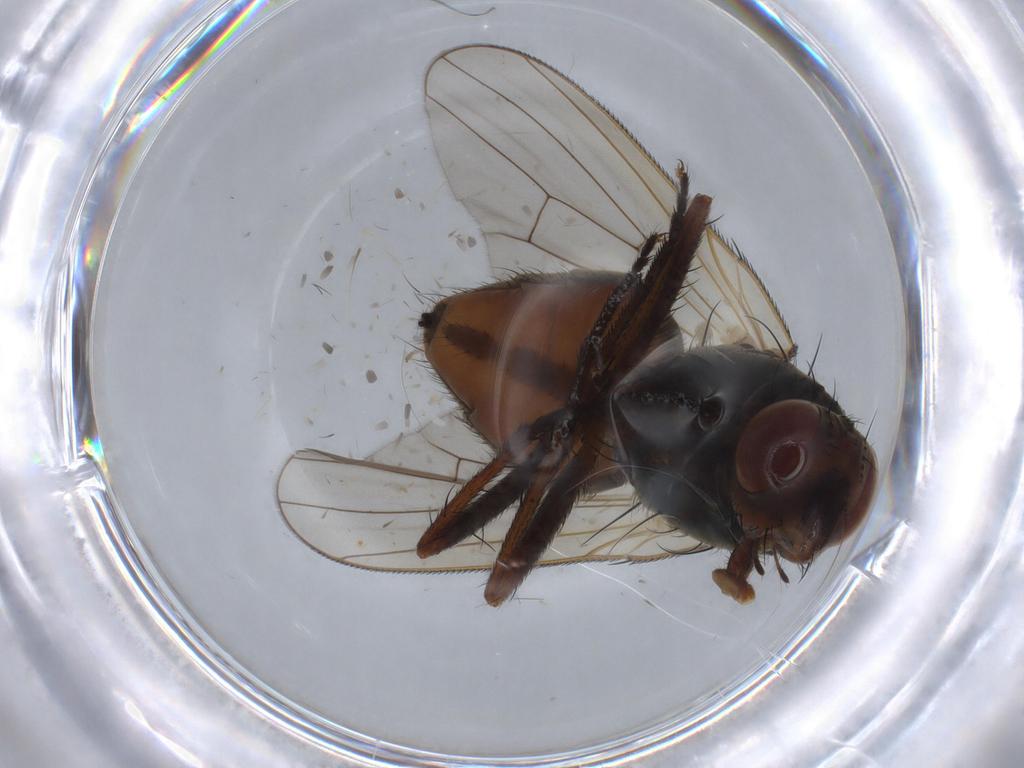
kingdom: Animalia
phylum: Arthropoda
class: Insecta
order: Diptera
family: Anthomyiidae
